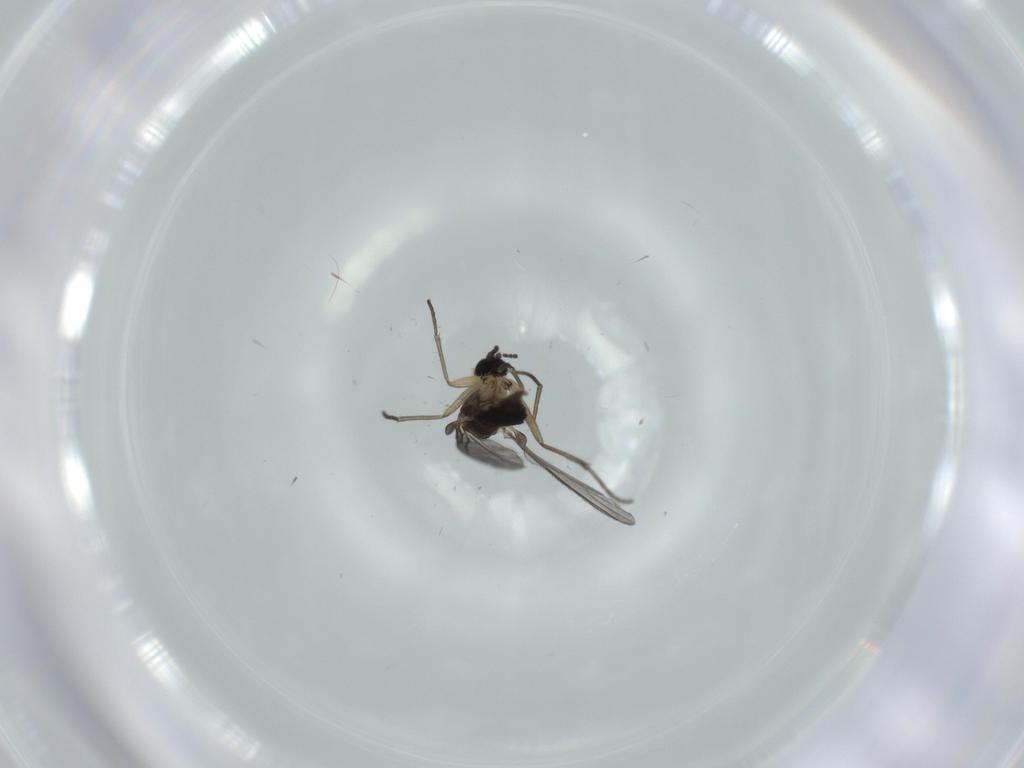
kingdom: Animalia
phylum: Arthropoda
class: Insecta
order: Diptera
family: Sciaridae
